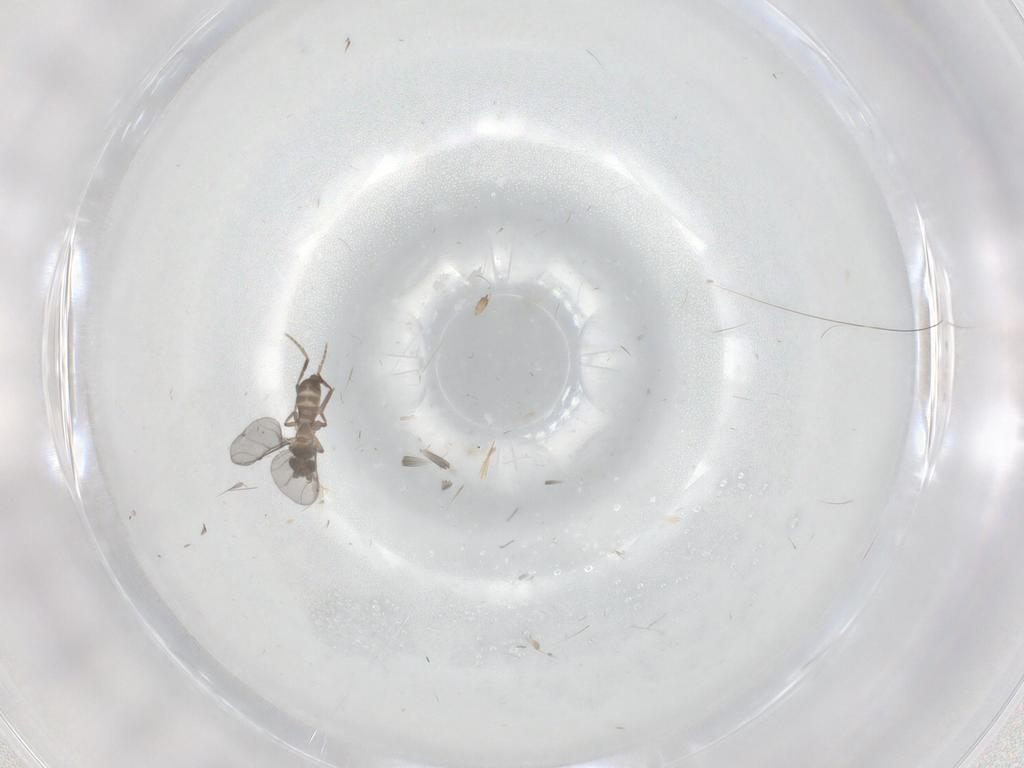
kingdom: Animalia
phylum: Arthropoda
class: Insecta
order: Diptera
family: Phoridae
